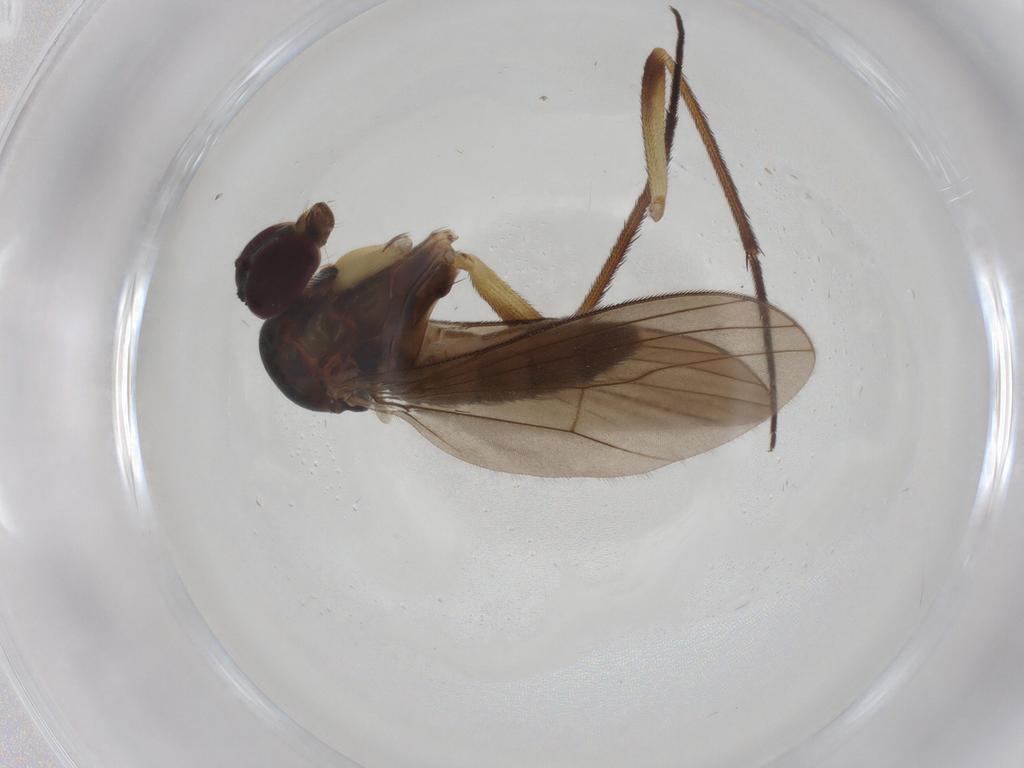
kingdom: Animalia
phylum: Arthropoda
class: Insecta
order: Diptera
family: Dolichopodidae
